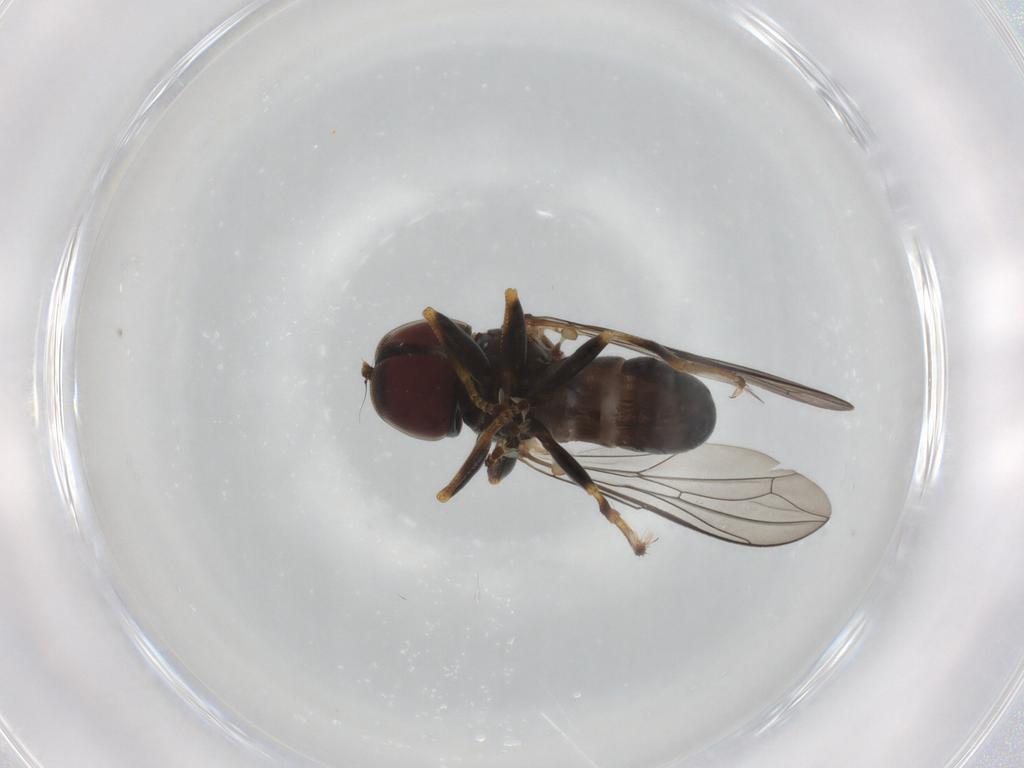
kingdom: Animalia
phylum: Arthropoda
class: Insecta
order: Diptera
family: Pipunculidae
